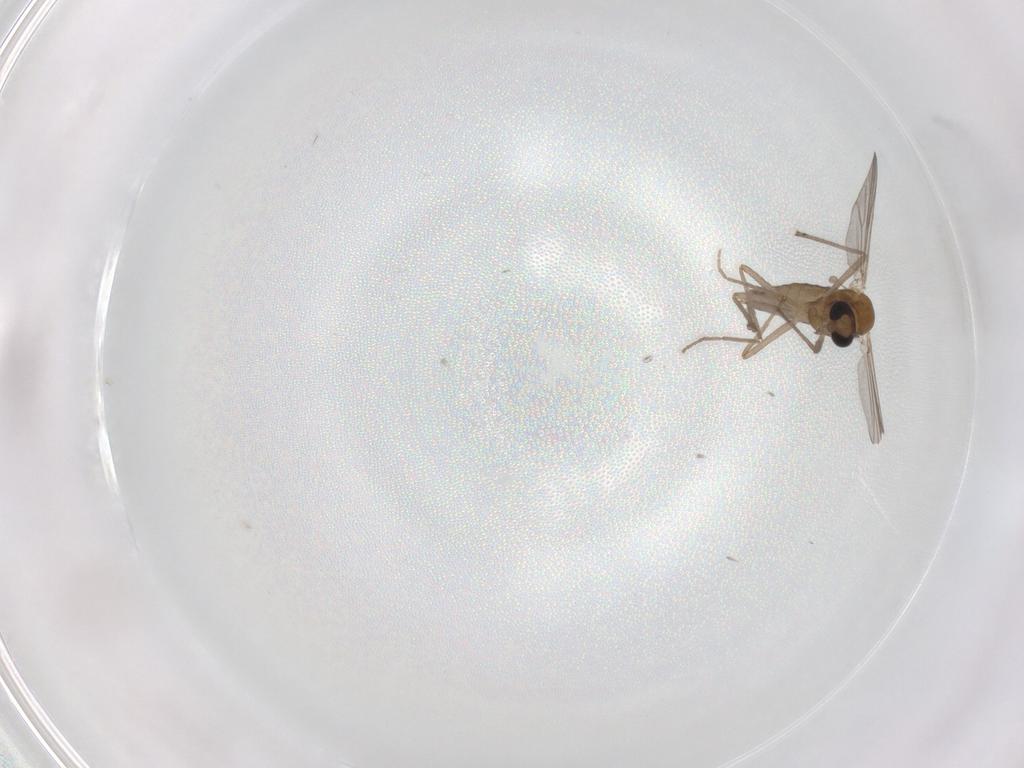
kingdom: Animalia
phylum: Arthropoda
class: Insecta
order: Diptera
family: Chironomidae
